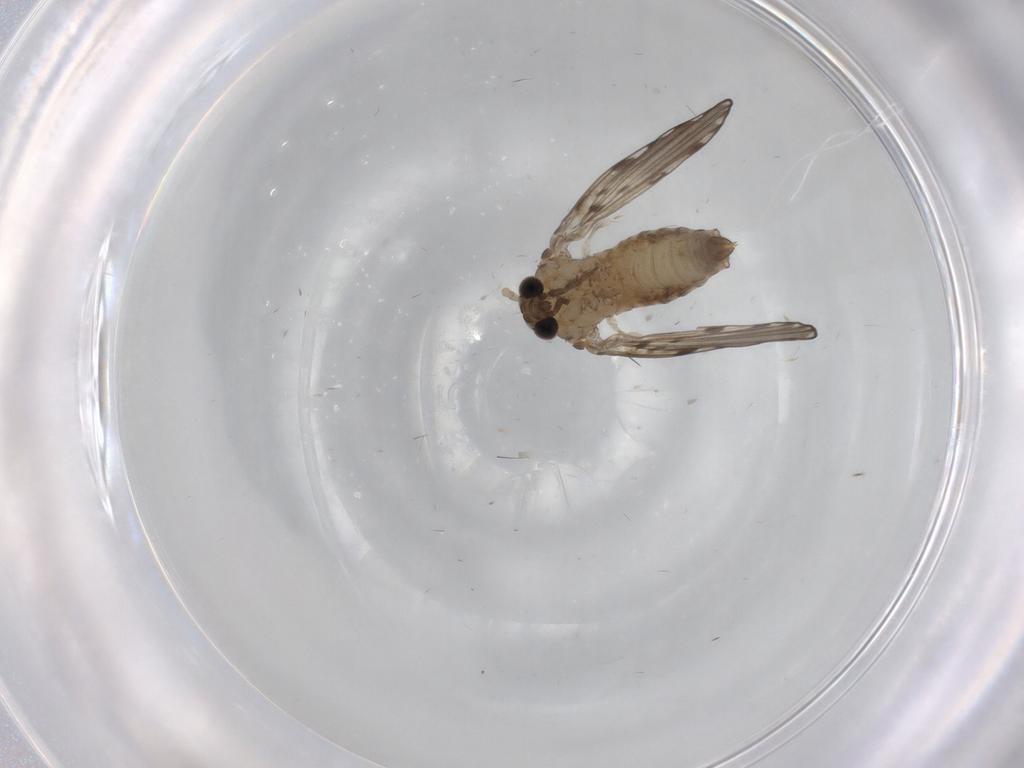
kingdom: Animalia
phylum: Arthropoda
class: Insecta
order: Diptera
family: Psychodidae
